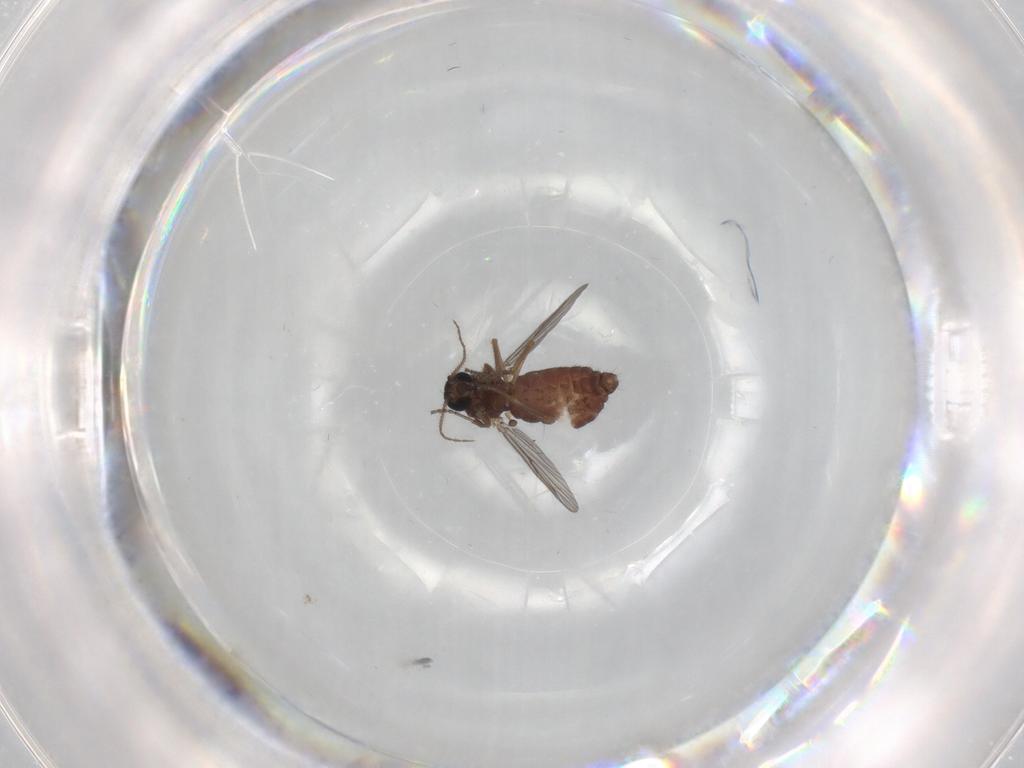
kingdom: Animalia
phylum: Arthropoda
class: Insecta
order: Diptera
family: Ceratopogonidae
